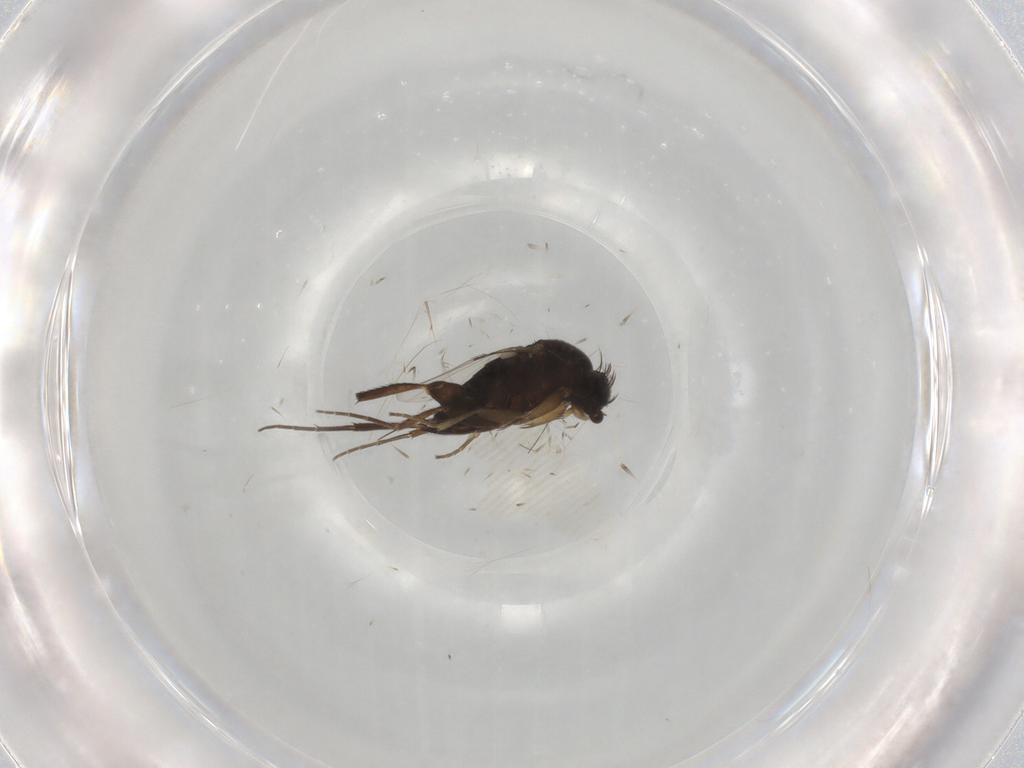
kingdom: Animalia
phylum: Arthropoda
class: Insecta
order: Diptera
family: Phoridae
